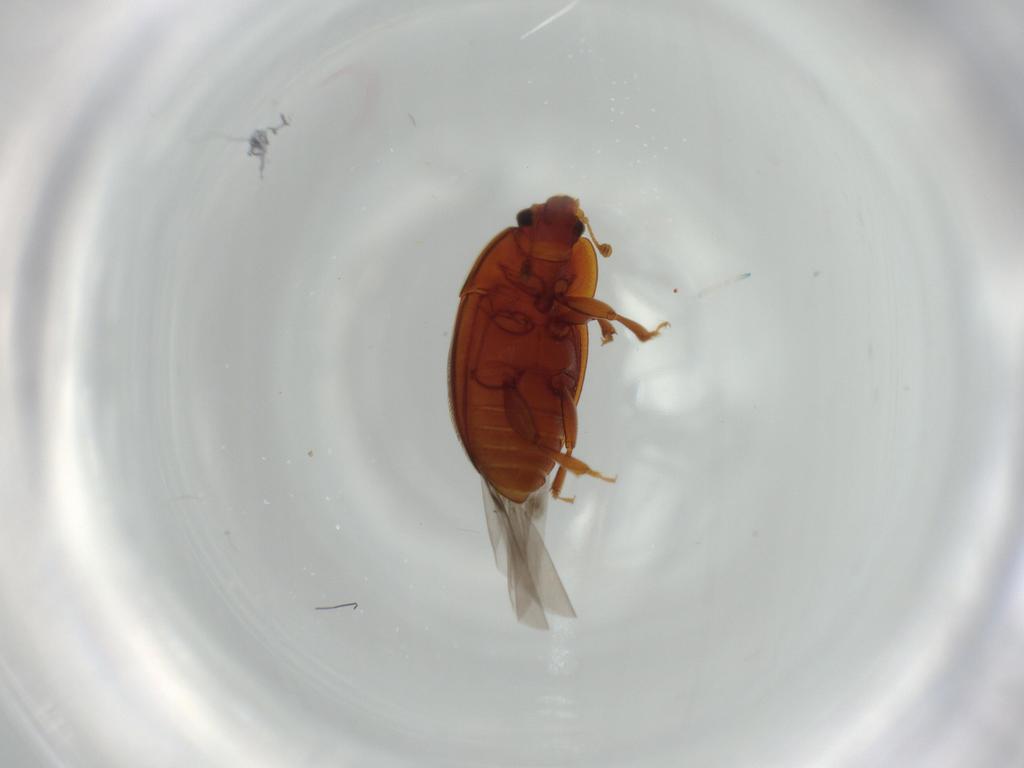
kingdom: Animalia
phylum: Arthropoda
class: Insecta
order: Coleoptera
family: Nitidulidae
